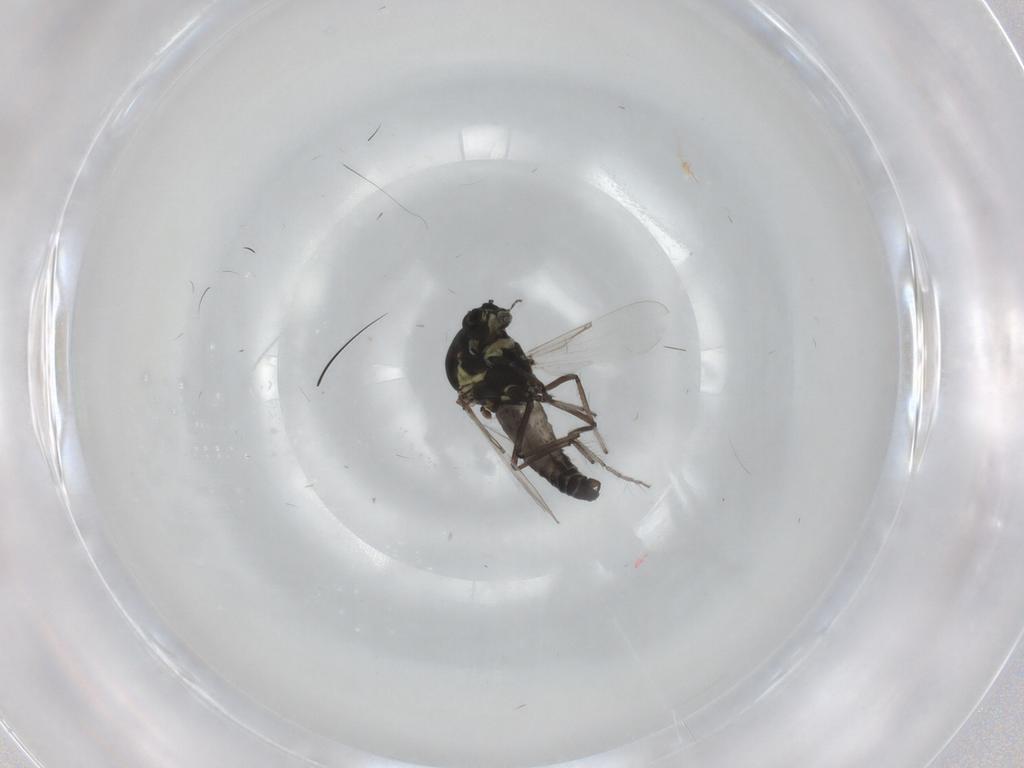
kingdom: Animalia
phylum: Arthropoda
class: Insecta
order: Diptera
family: Ceratopogonidae
